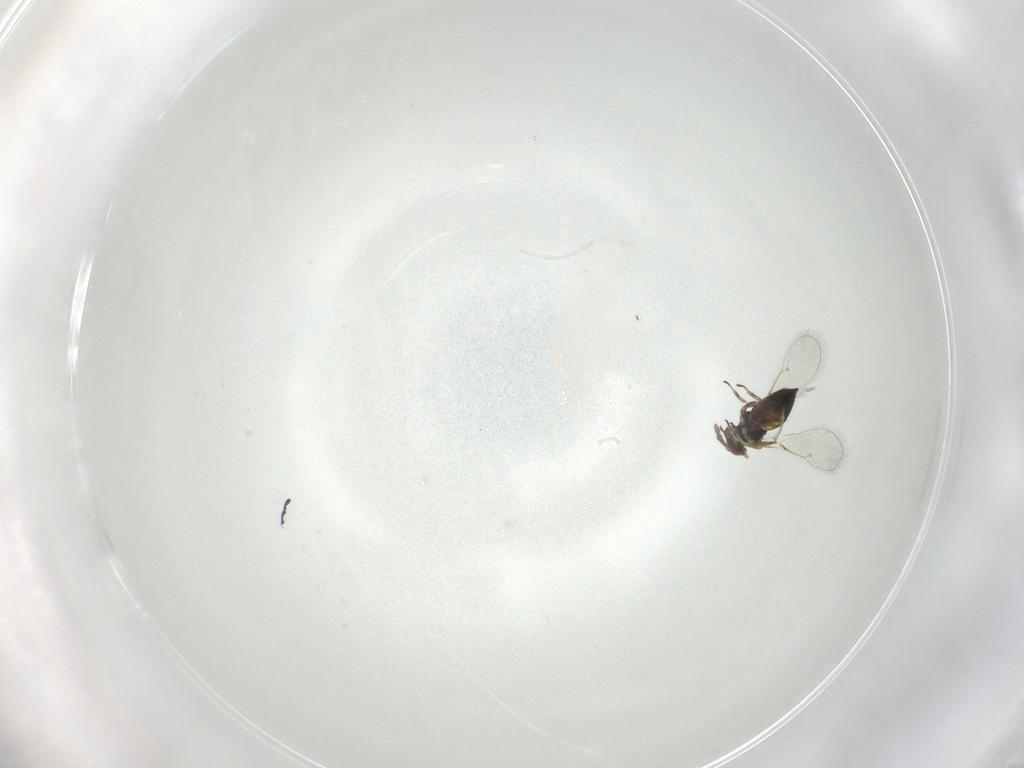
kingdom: Animalia
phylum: Arthropoda
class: Insecta
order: Hymenoptera
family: Eulophidae
